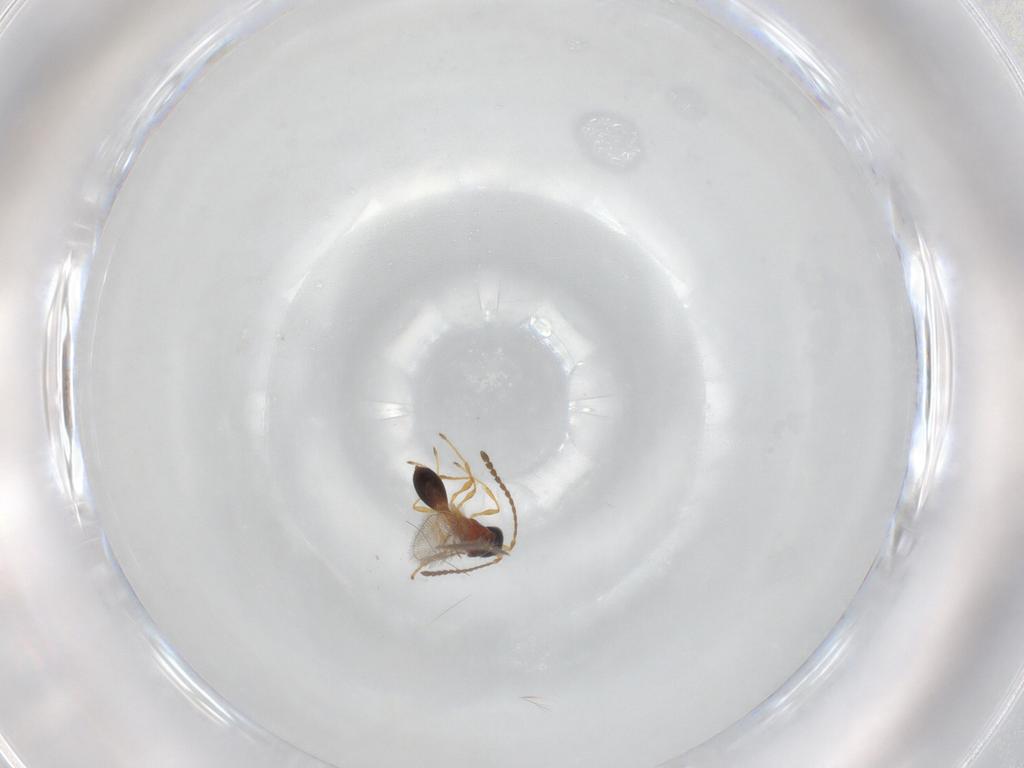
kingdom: Animalia
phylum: Arthropoda
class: Insecta
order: Hymenoptera
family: Diapriidae
